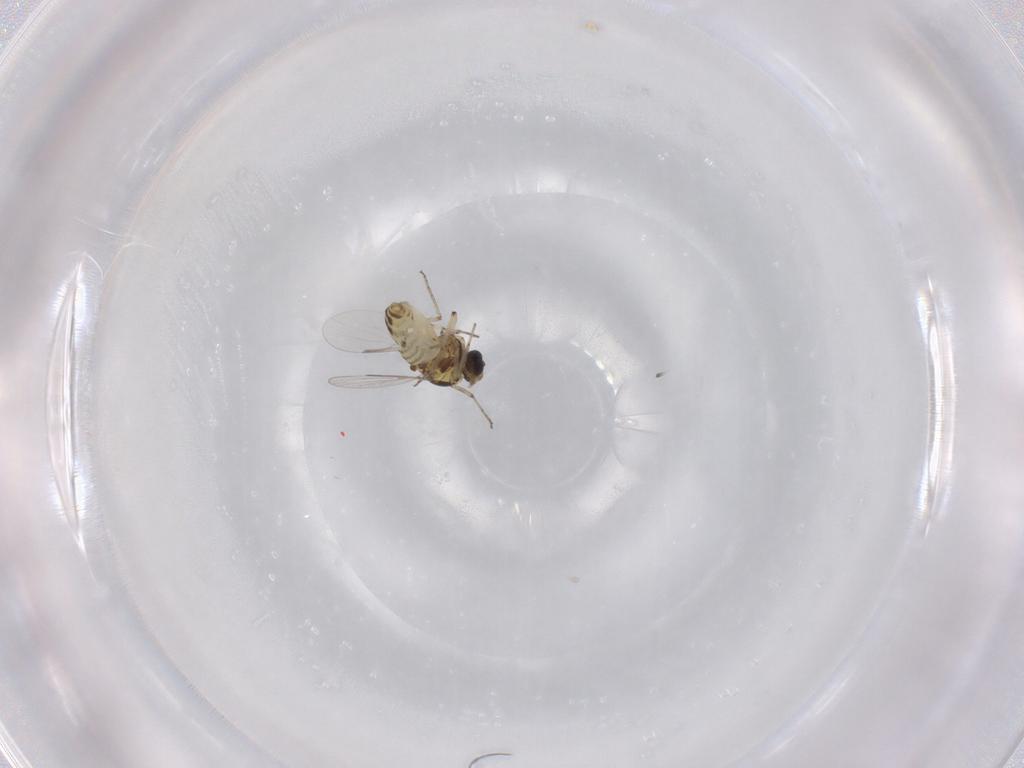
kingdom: Animalia
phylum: Arthropoda
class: Insecta
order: Diptera
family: Ceratopogonidae
